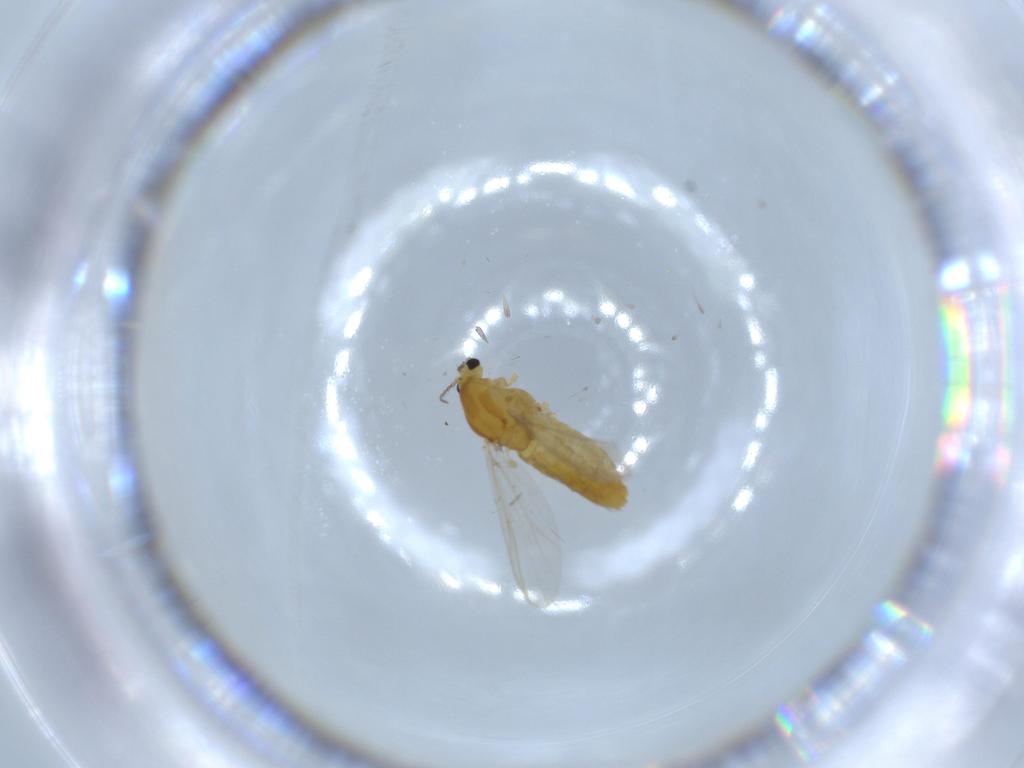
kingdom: Animalia
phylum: Arthropoda
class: Insecta
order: Diptera
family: Chironomidae
